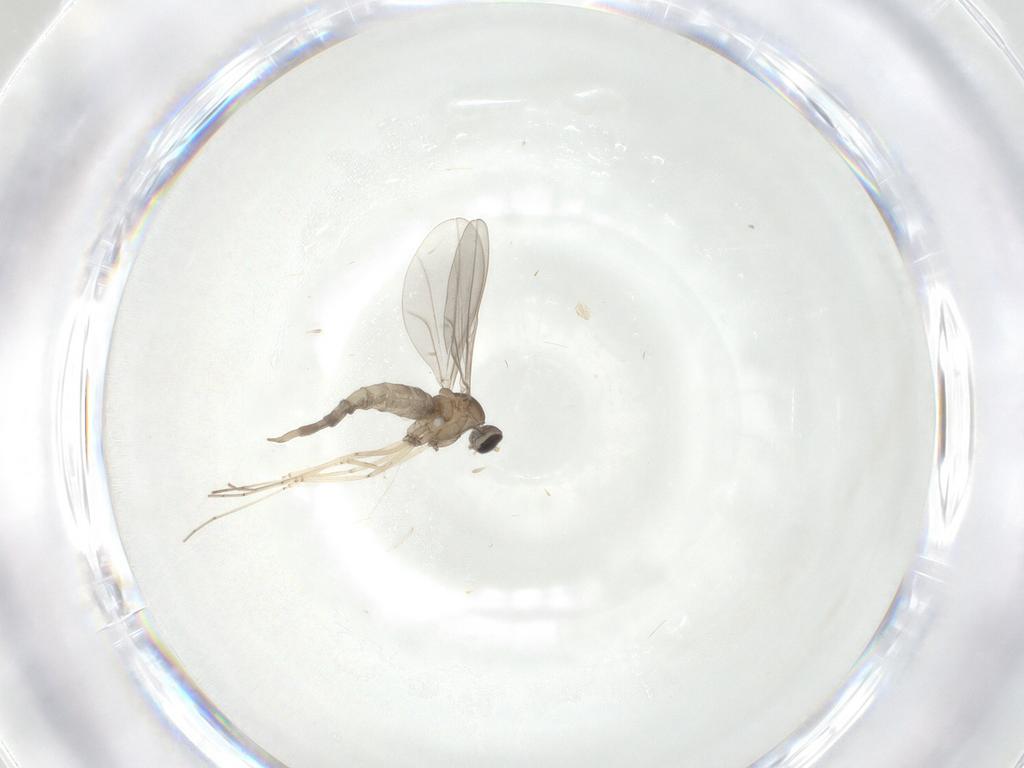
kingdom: Animalia
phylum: Arthropoda
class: Insecta
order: Diptera
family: Cecidomyiidae
